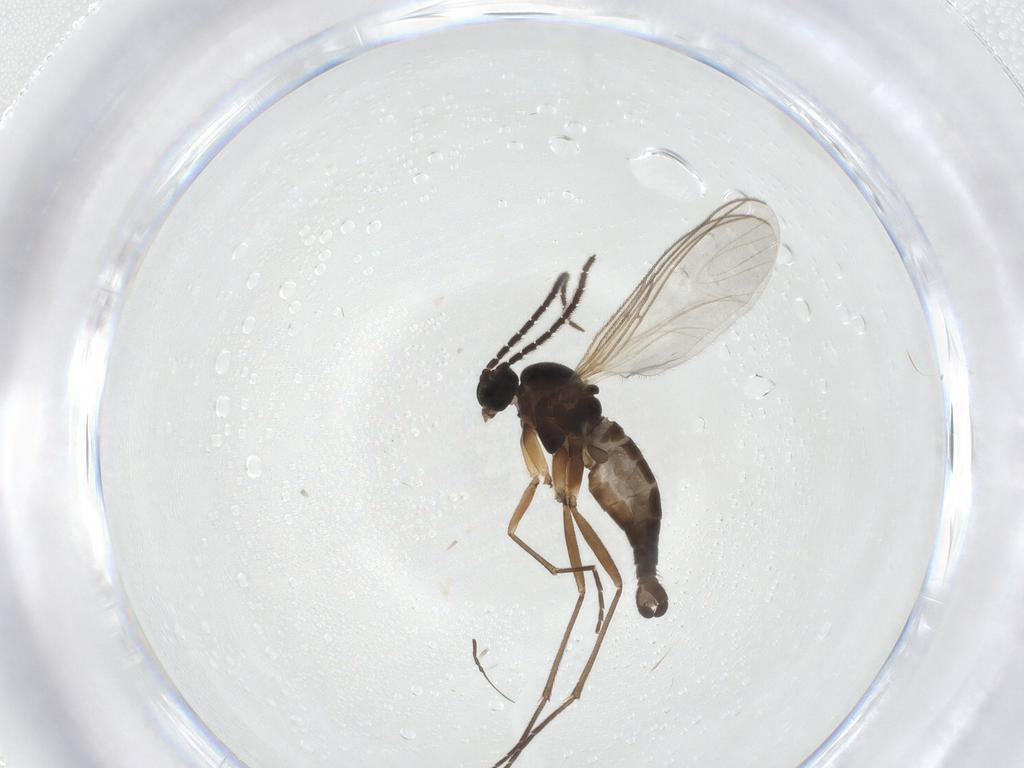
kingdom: Animalia
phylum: Arthropoda
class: Insecta
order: Diptera
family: Sciaridae
